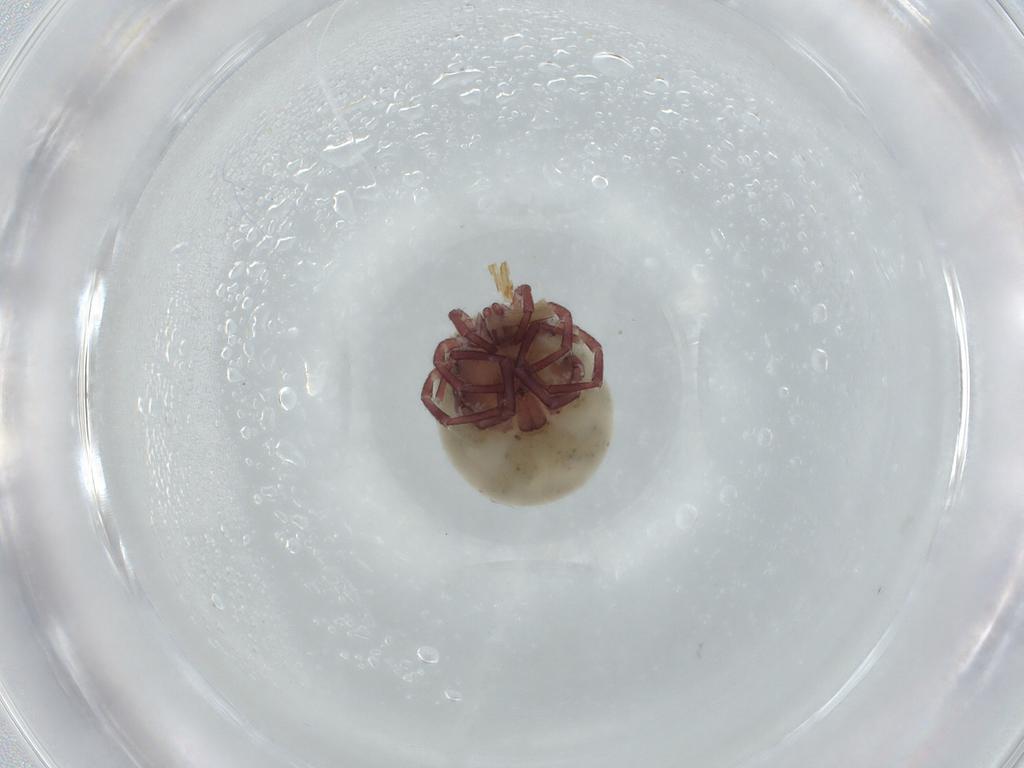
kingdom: Animalia
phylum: Arthropoda
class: Arachnida
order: Trombidiformes
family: Lebertiidae
